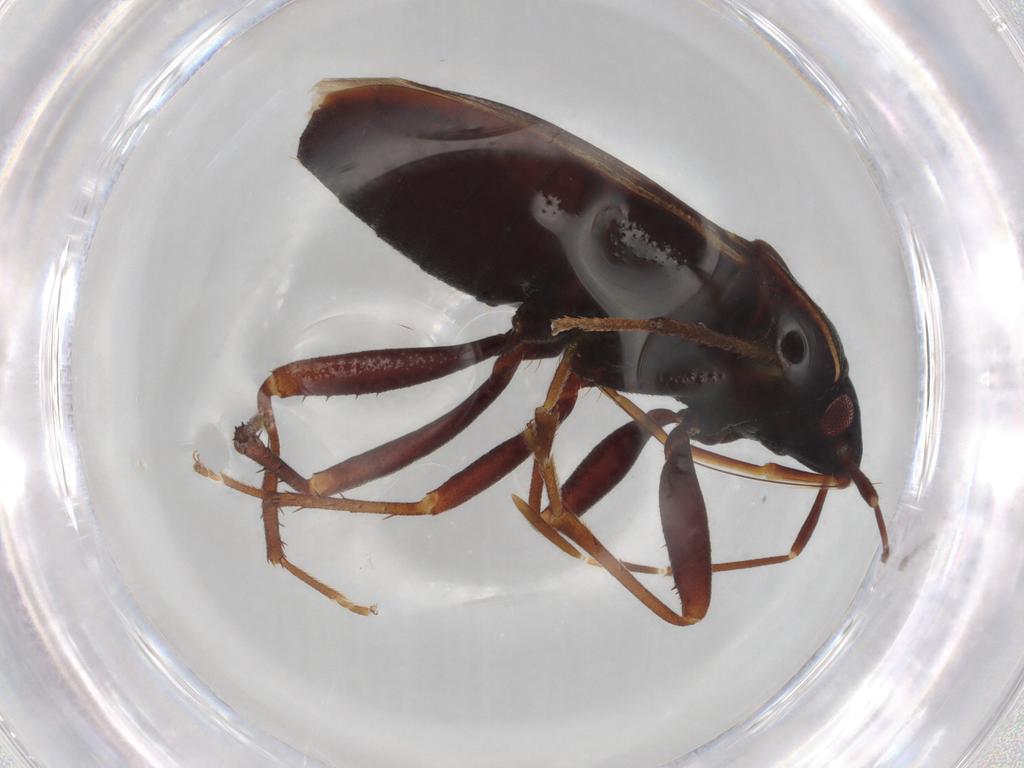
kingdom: Animalia
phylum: Arthropoda
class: Insecta
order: Hemiptera
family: Lygaeidae
